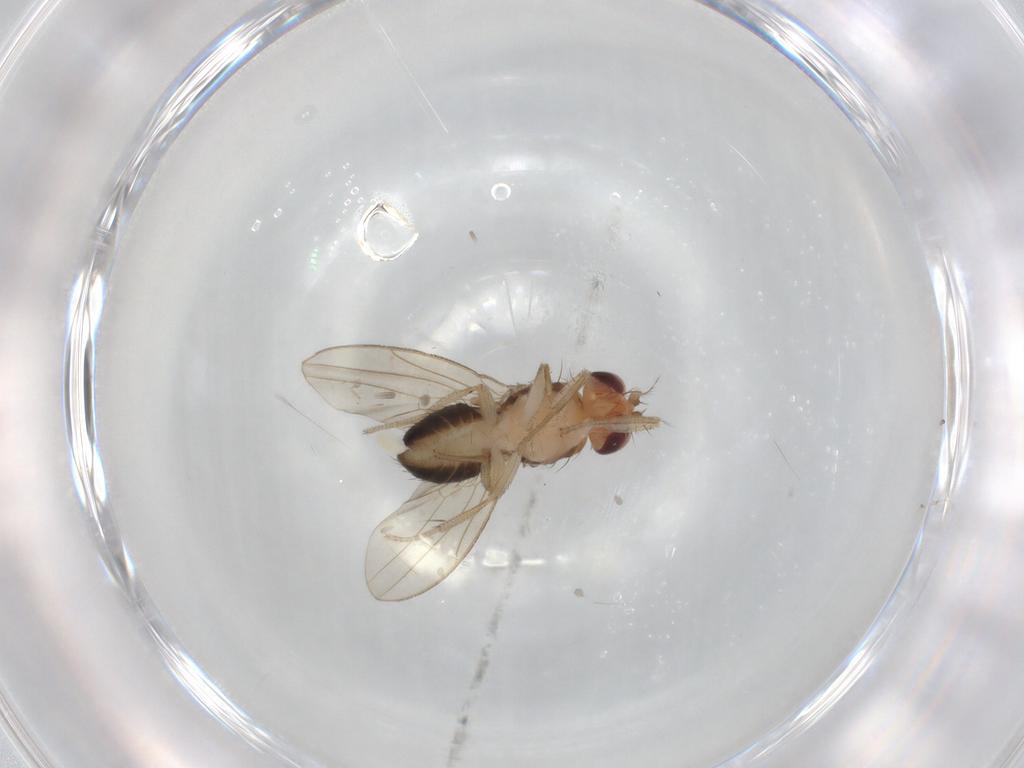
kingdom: Animalia
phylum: Arthropoda
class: Insecta
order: Diptera
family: Drosophilidae
